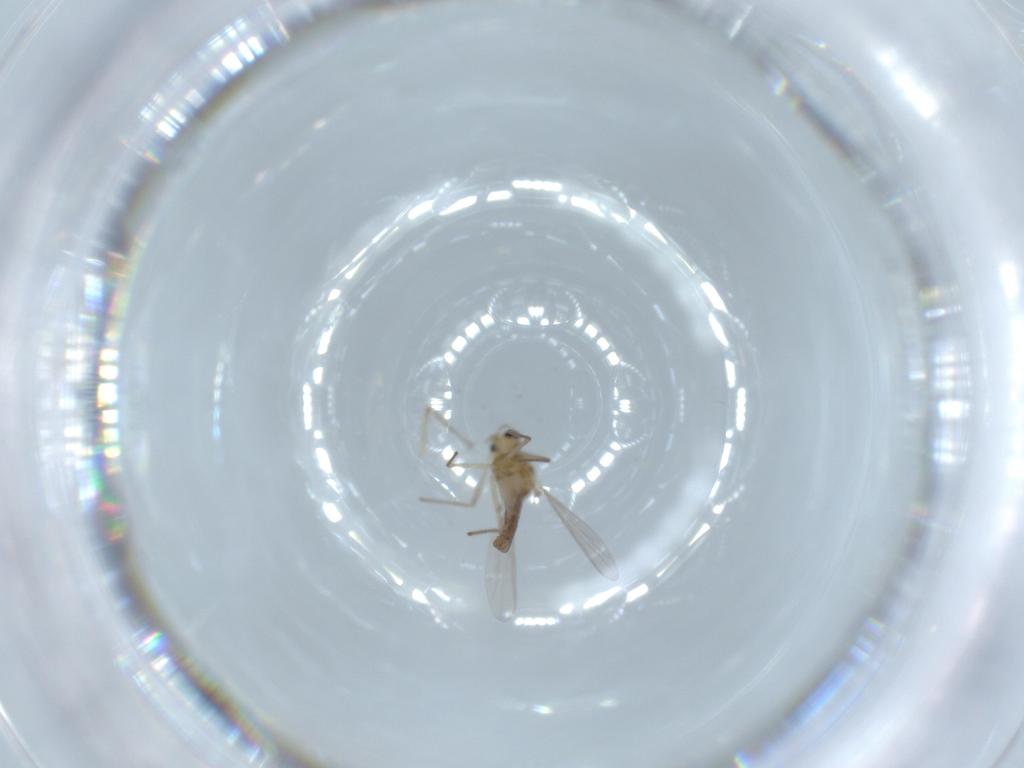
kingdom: Animalia
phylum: Arthropoda
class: Insecta
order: Diptera
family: Chironomidae
